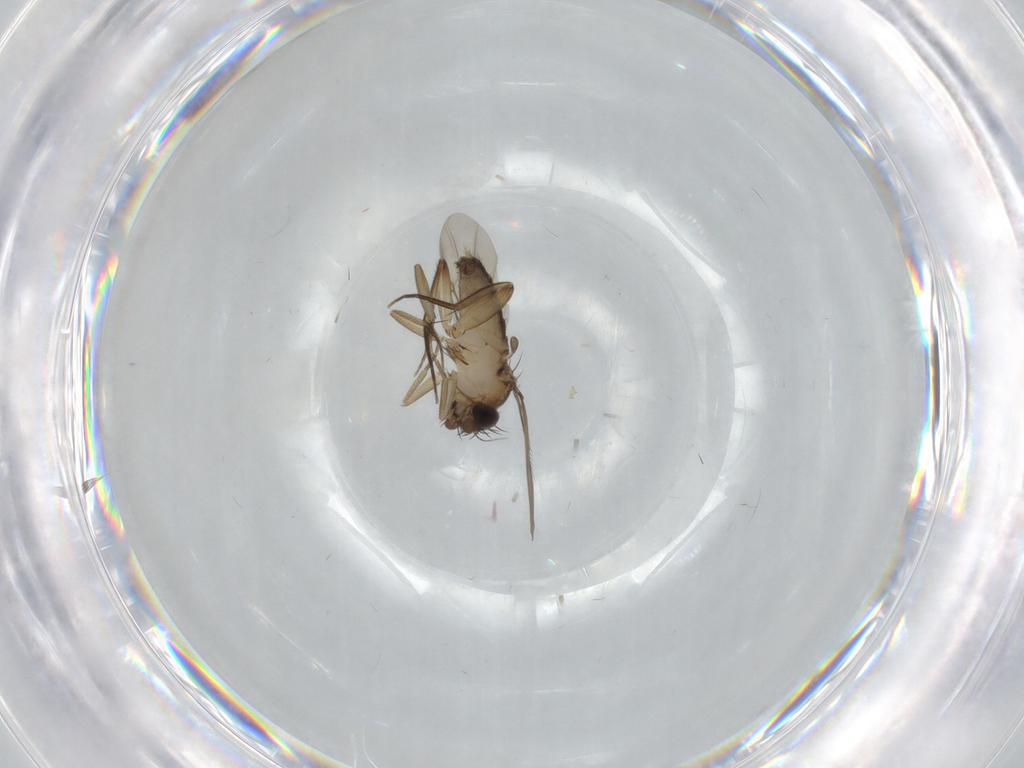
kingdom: Animalia
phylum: Arthropoda
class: Insecta
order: Diptera
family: Phoridae
